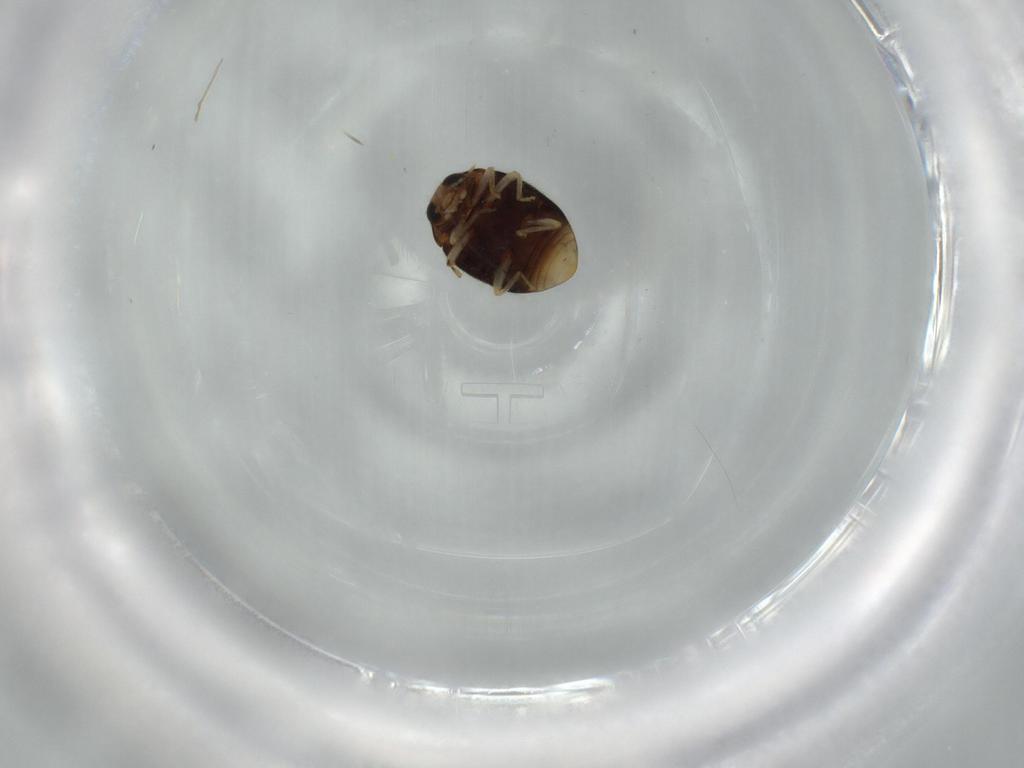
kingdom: Animalia
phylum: Arthropoda
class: Insecta
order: Coleoptera
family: Coccinellidae
